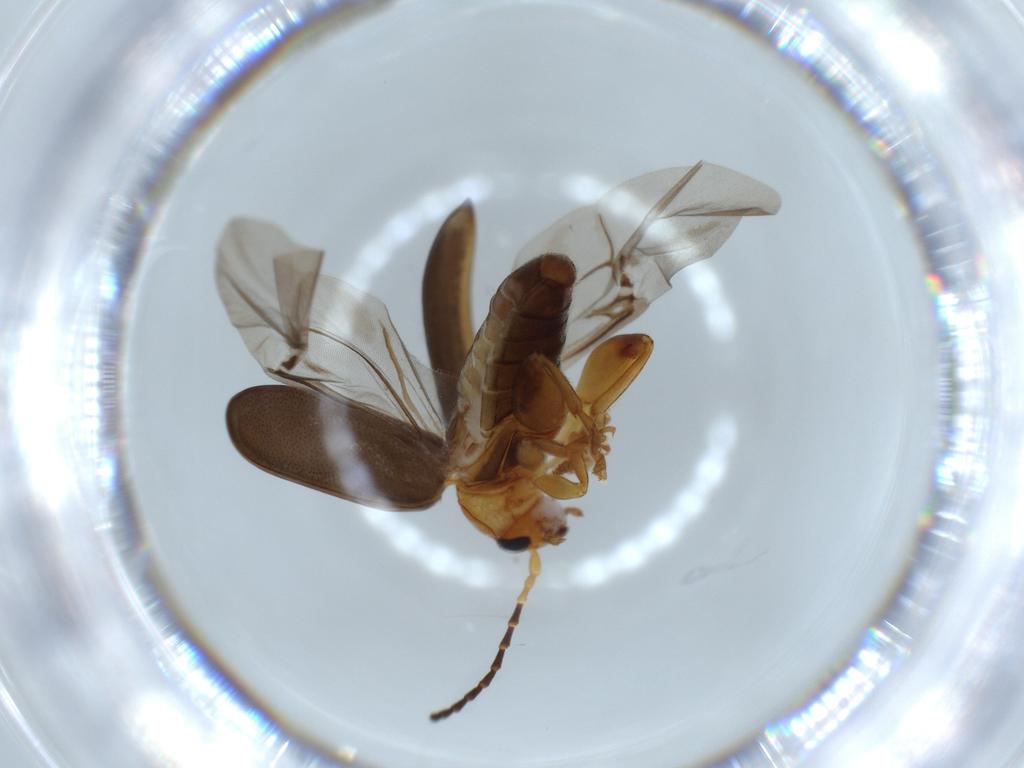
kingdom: Animalia
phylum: Arthropoda
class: Insecta
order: Coleoptera
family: Chrysomelidae
